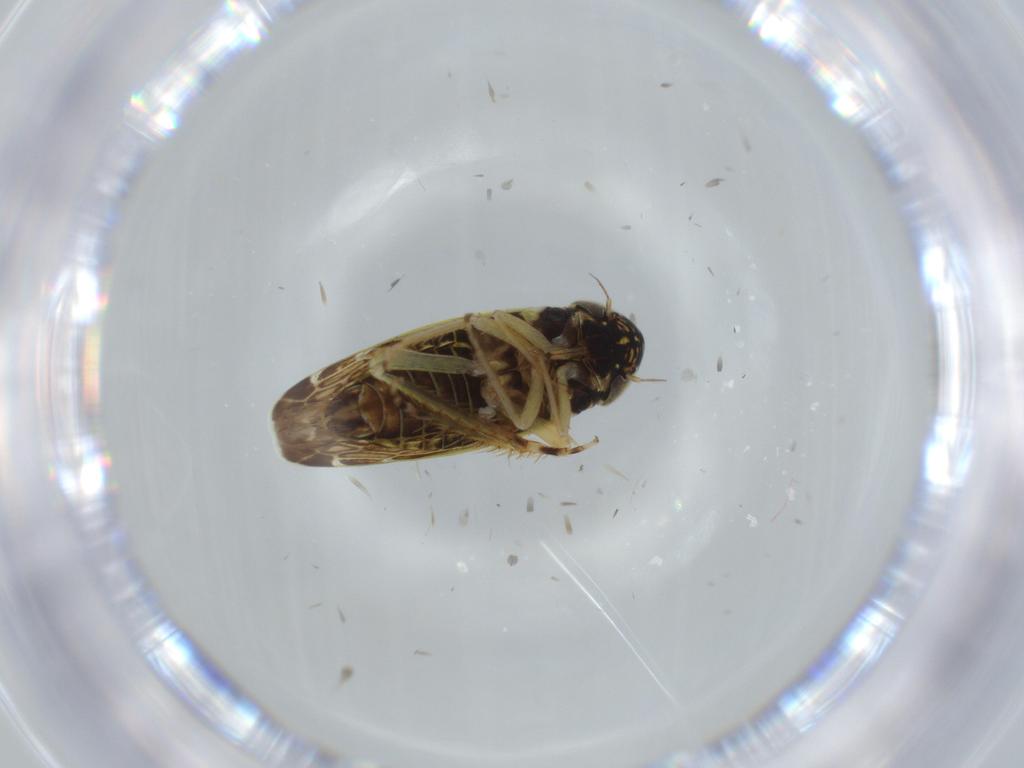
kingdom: Animalia
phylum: Arthropoda
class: Insecta
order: Hemiptera
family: Cicadellidae
